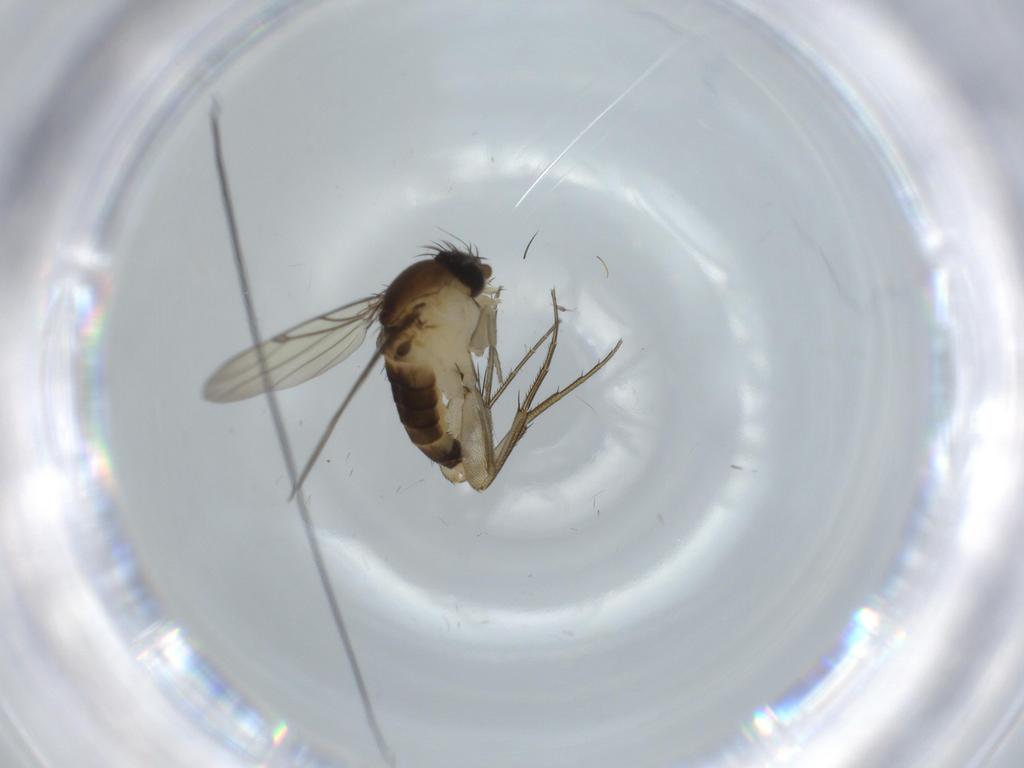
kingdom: Animalia
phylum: Arthropoda
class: Insecta
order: Diptera
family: Phoridae
